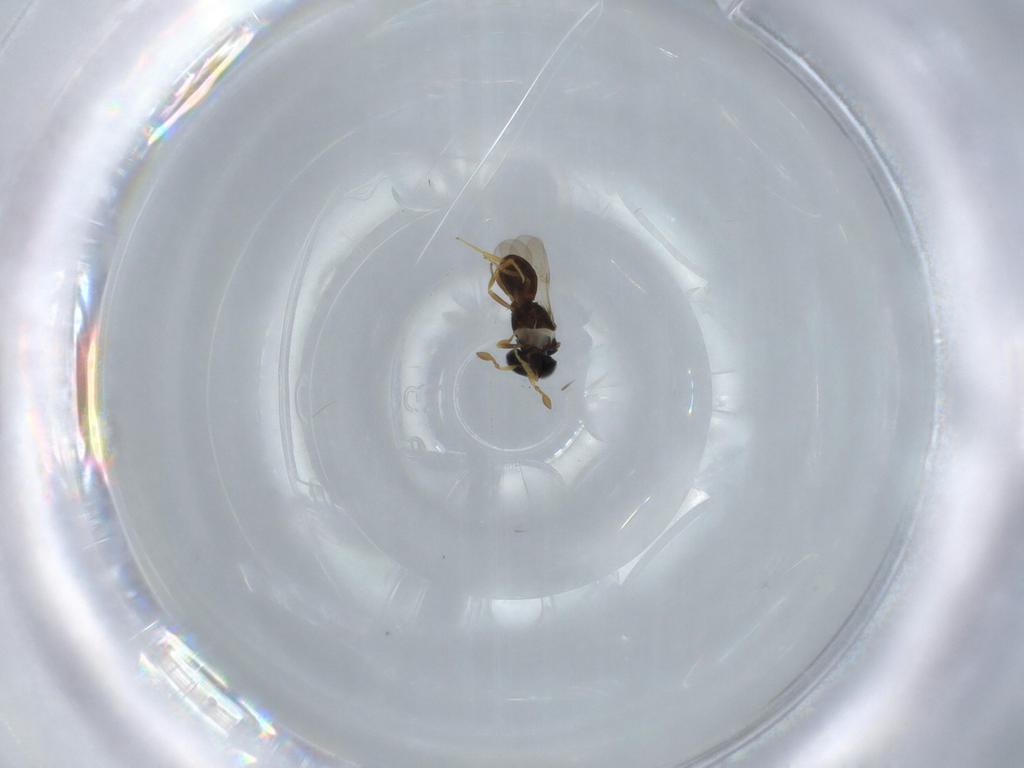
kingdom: Animalia
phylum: Arthropoda
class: Insecta
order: Hymenoptera
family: Scelionidae
